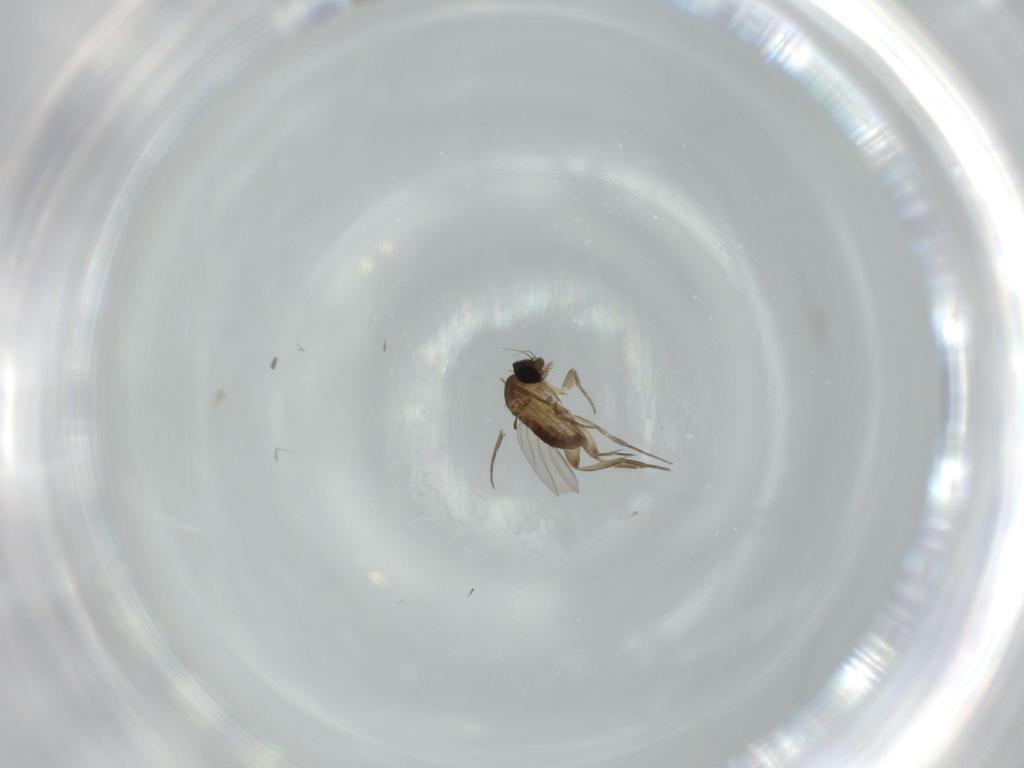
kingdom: Animalia
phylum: Arthropoda
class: Insecta
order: Diptera
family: Phoridae
